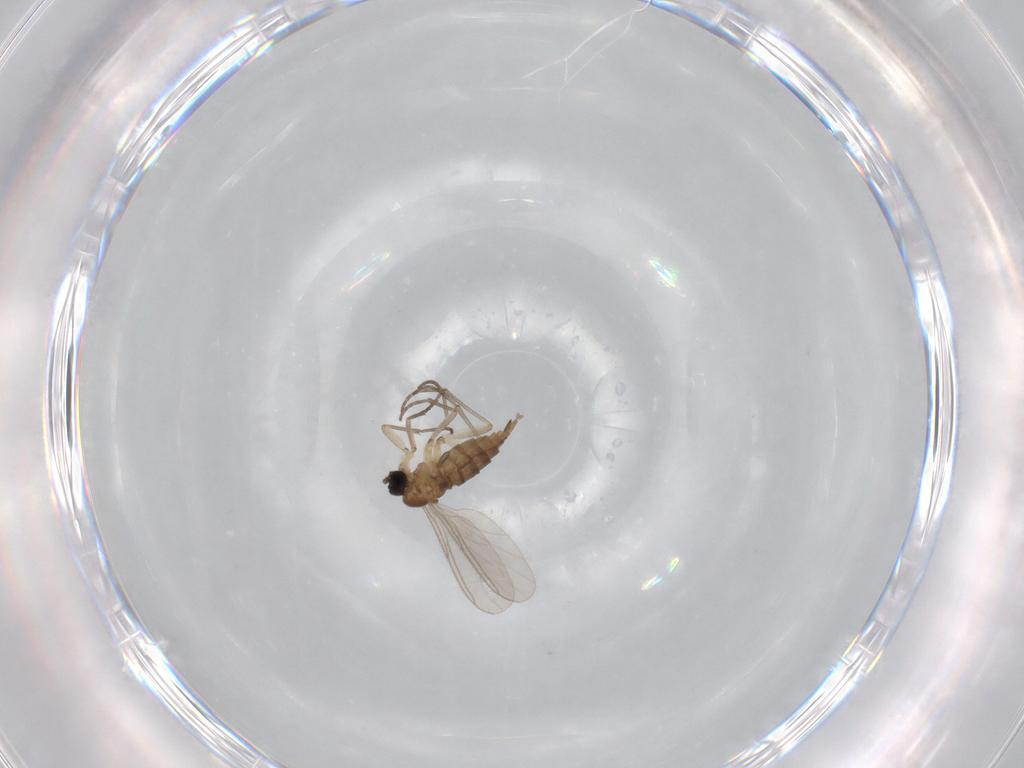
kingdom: Animalia
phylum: Arthropoda
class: Insecta
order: Diptera
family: Sciaridae
